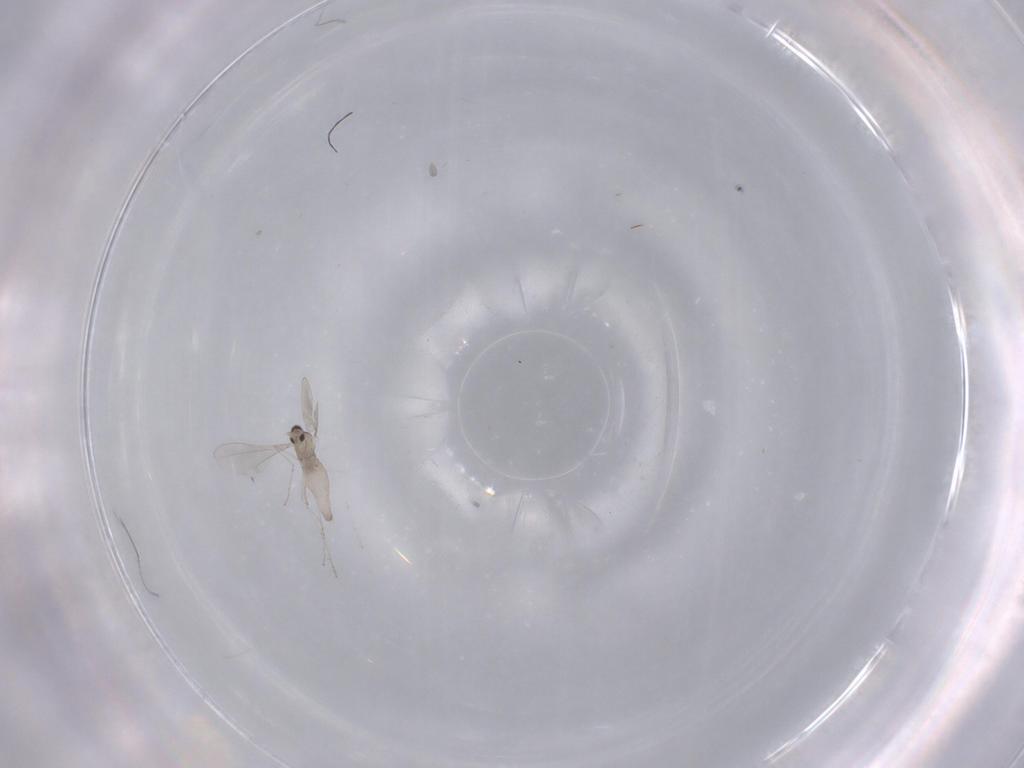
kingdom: Animalia
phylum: Arthropoda
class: Insecta
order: Diptera
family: Cecidomyiidae
